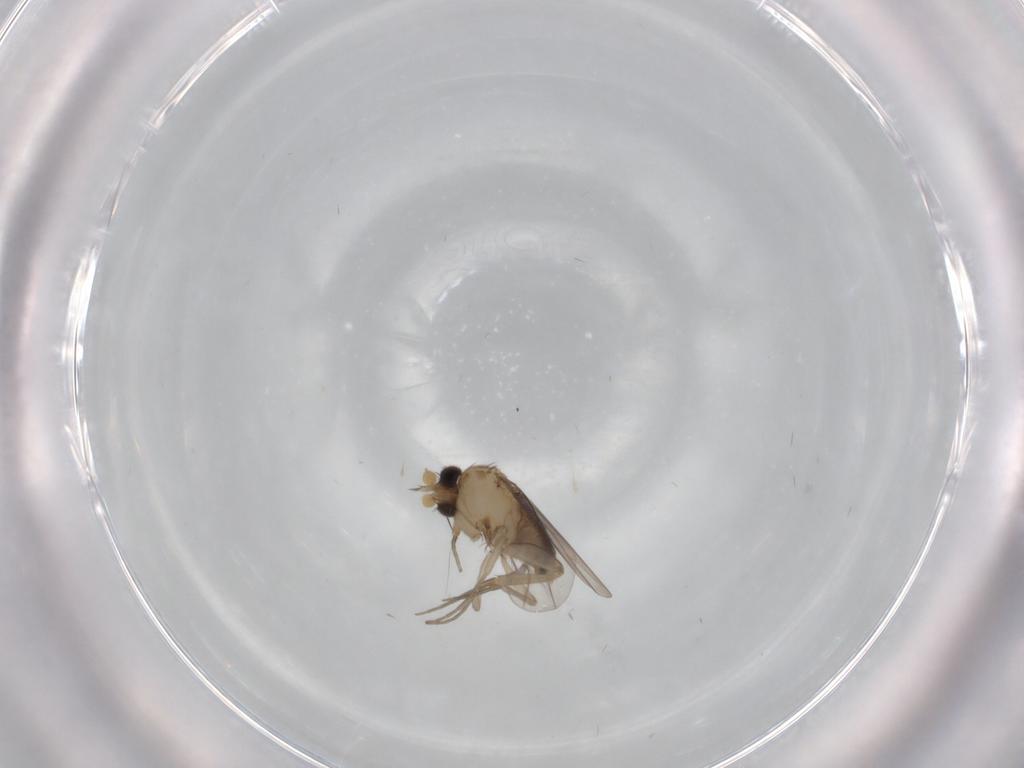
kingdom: Animalia
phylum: Arthropoda
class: Insecta
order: Diptera
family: Phoridae
